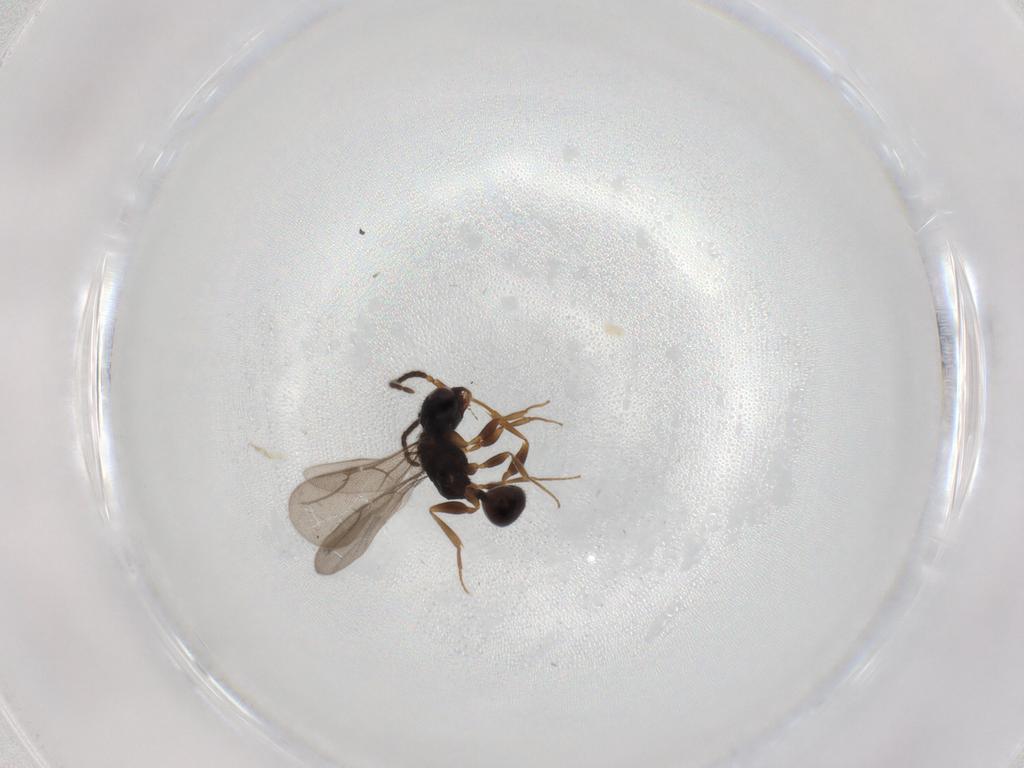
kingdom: Animalia
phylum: Arthropoda
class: Insecta
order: Hymenoptera
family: Bethylidae
